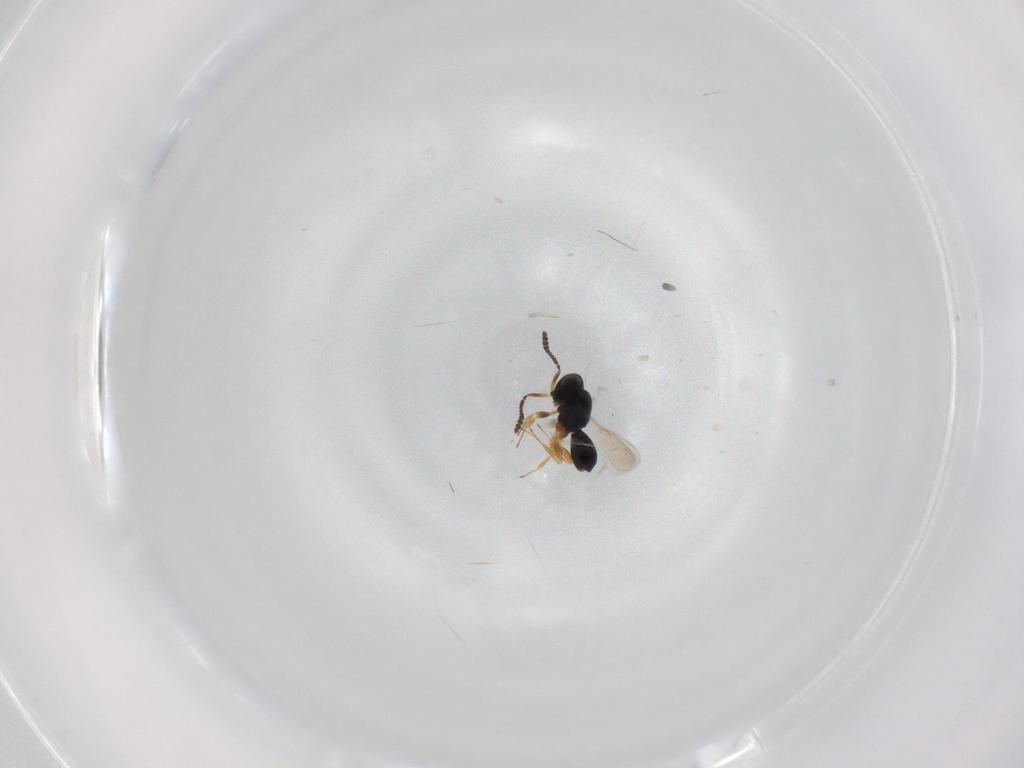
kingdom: Animalia
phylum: Arthropoda
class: Insecta
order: Hymenoptera
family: Scelionidae
